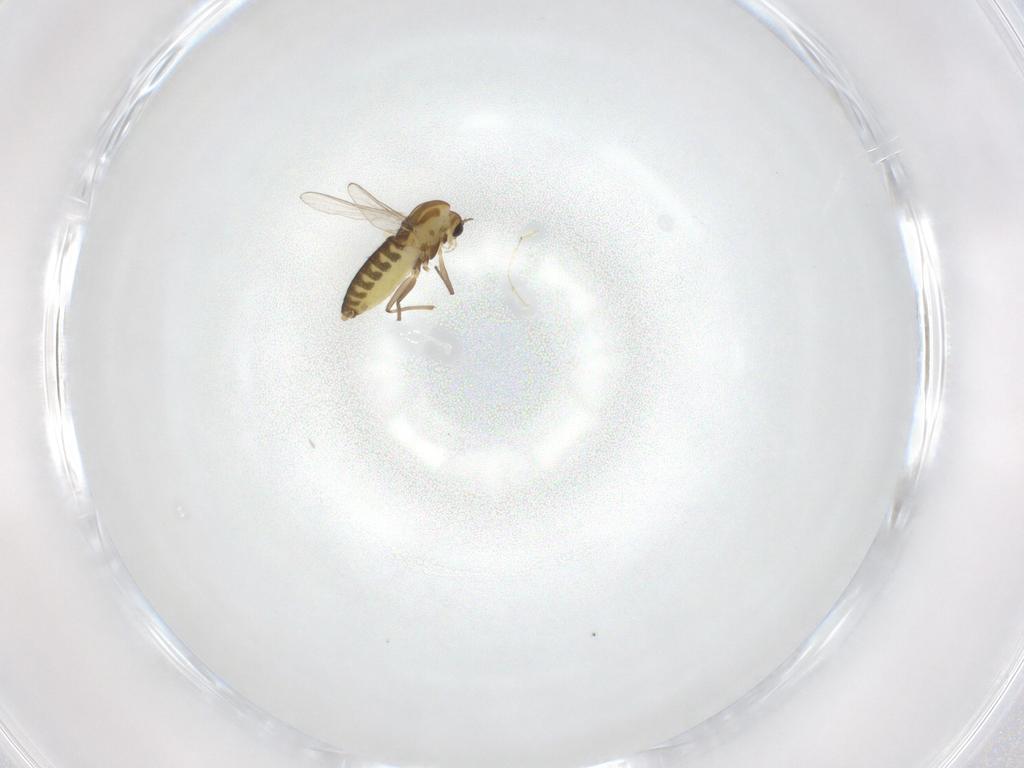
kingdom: Animalia
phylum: Arthropoda
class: Insecta
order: Diptera
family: Chironomidae
